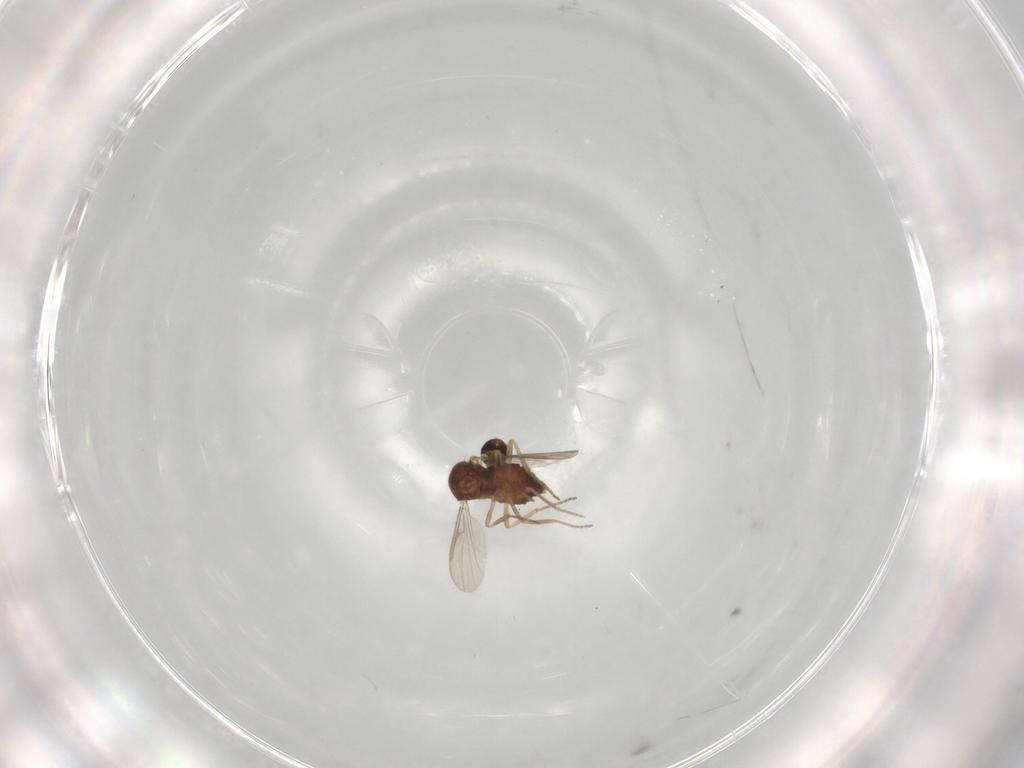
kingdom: Animalia
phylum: Arthropoda
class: Insecta
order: Diptera
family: Ceratopogonidae
